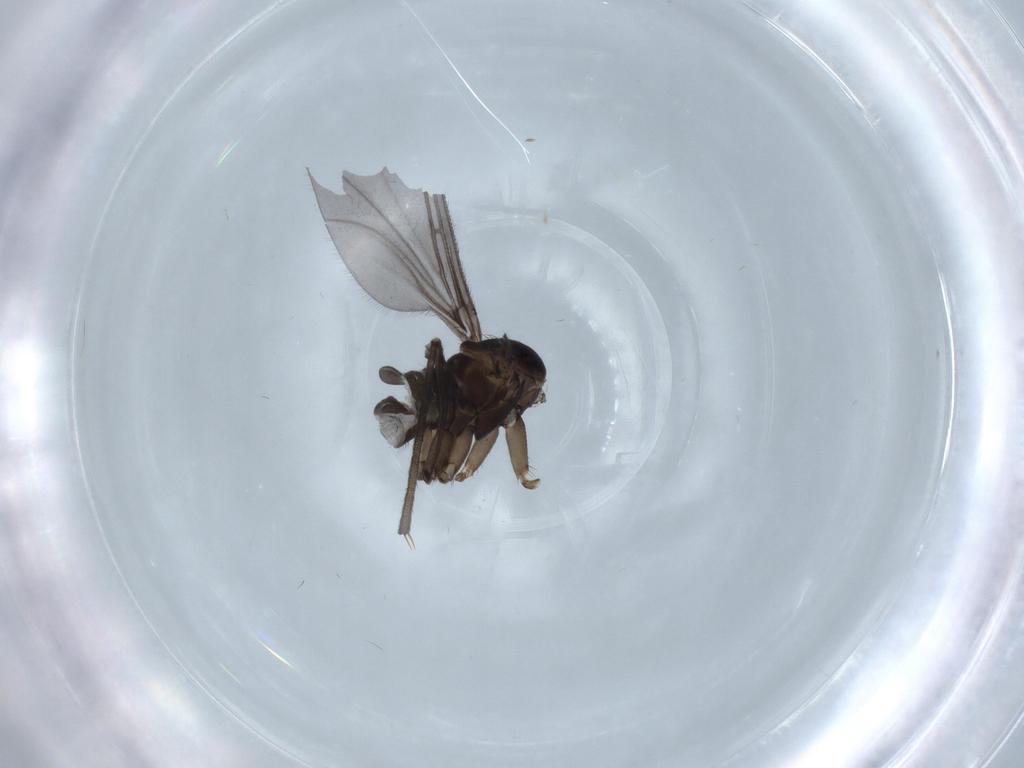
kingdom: Animalia
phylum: Arthropoda
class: Insecta
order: Diptera
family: Sciaridae
